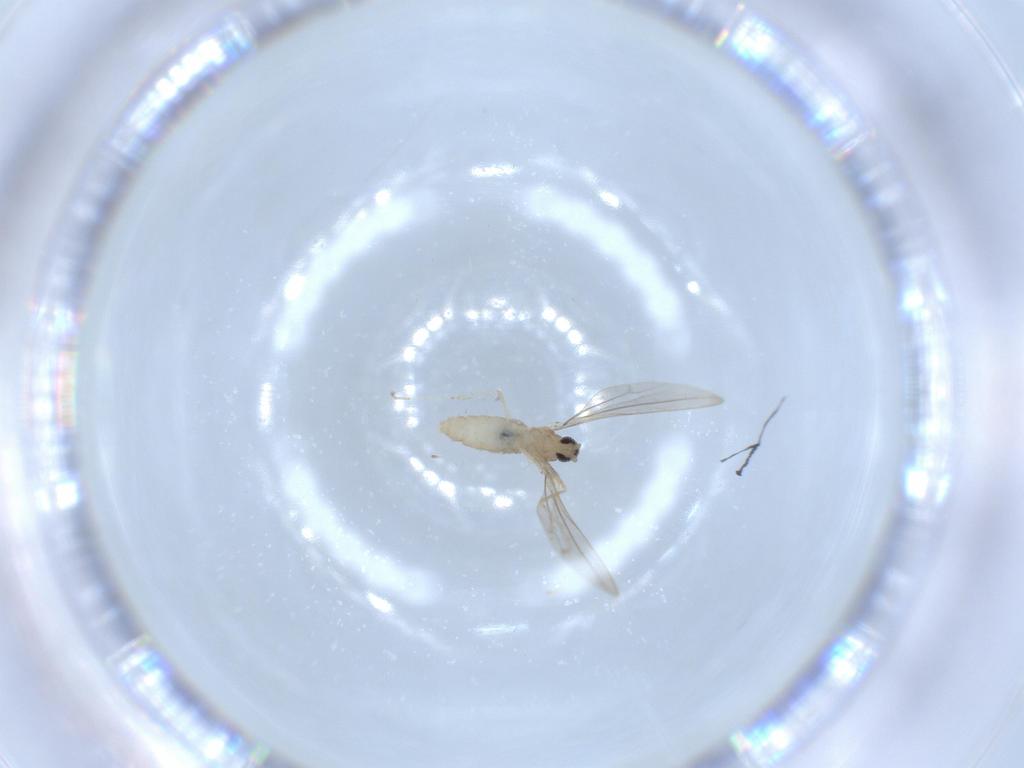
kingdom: Animalia
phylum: Arthropoda
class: Insecta
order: Diptera
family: Cecidomyiidae
